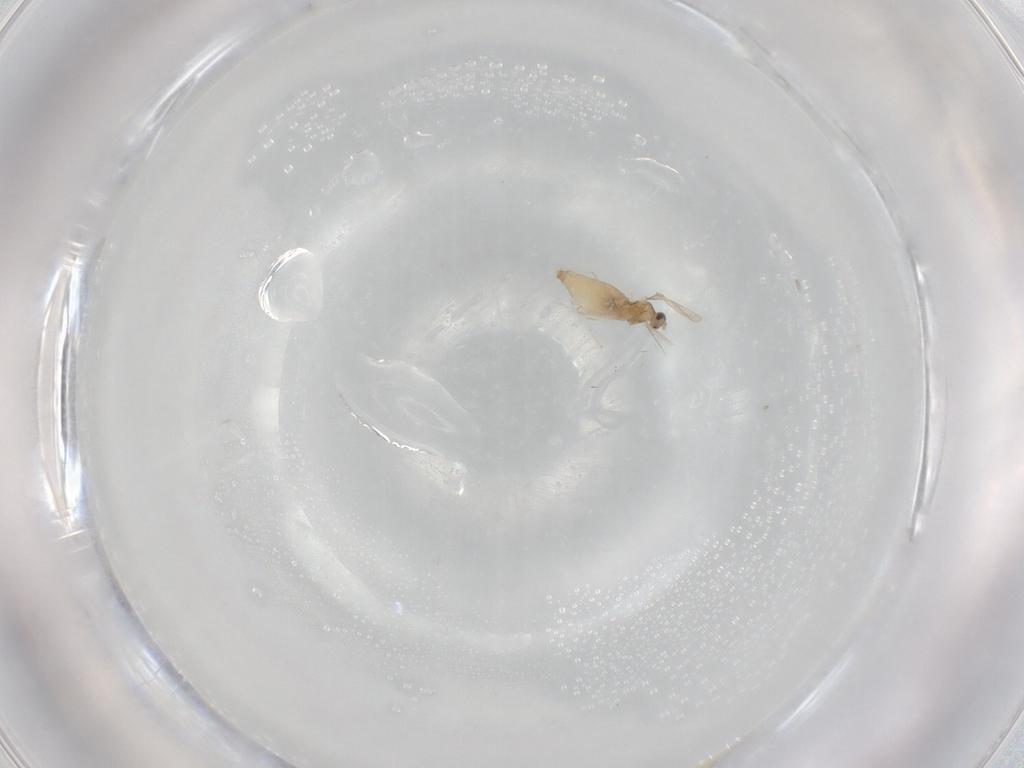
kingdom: Animalia
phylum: Arthropoda
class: Insecta
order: Diptera
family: Cecidomyiidae
